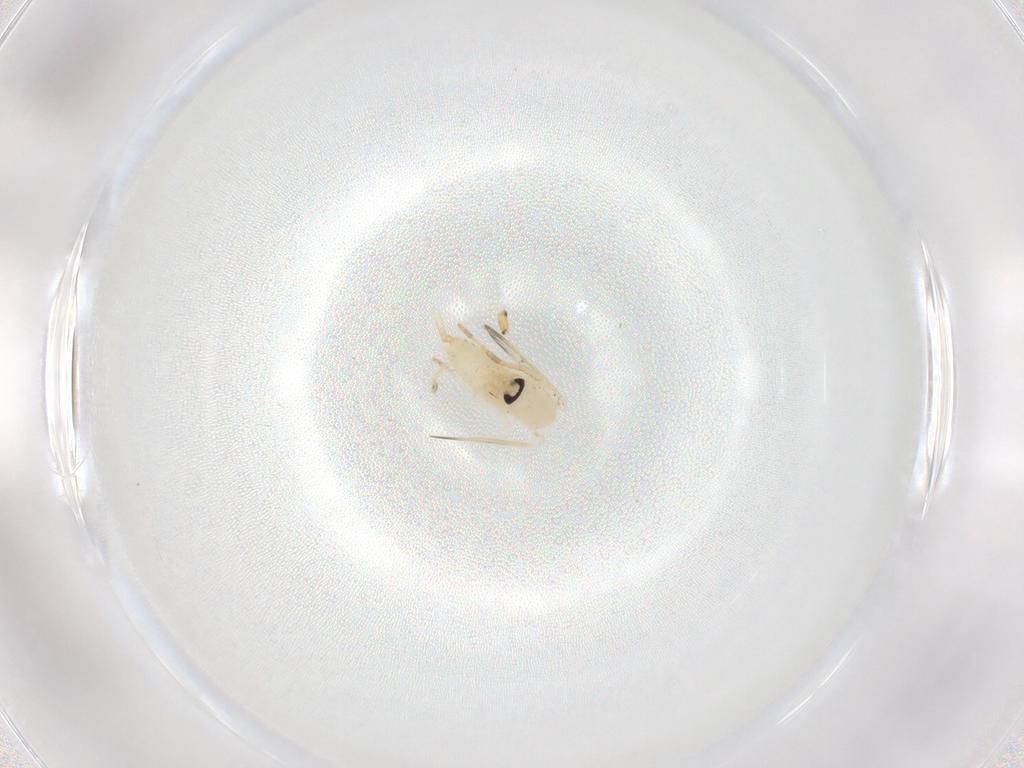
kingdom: Animalia
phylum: Arthropoda
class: Insecta
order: Diptera
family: Psychodidae
